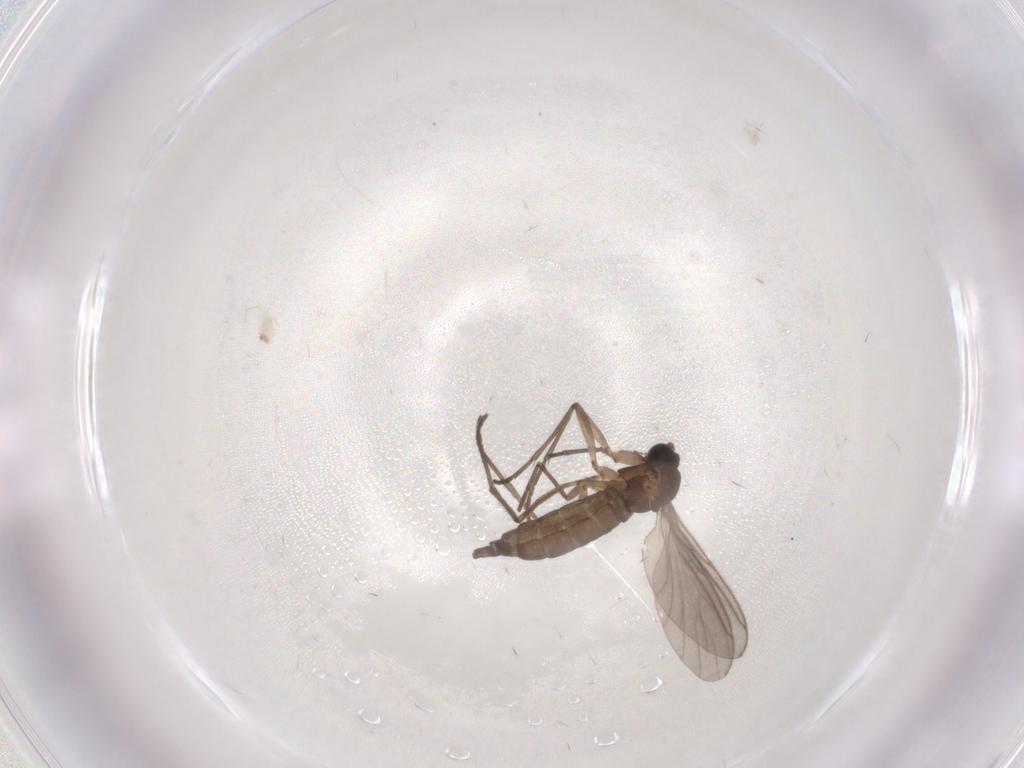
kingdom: Animalia
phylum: Arthropoda
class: Insecta
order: Diptera
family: Sciaridae
